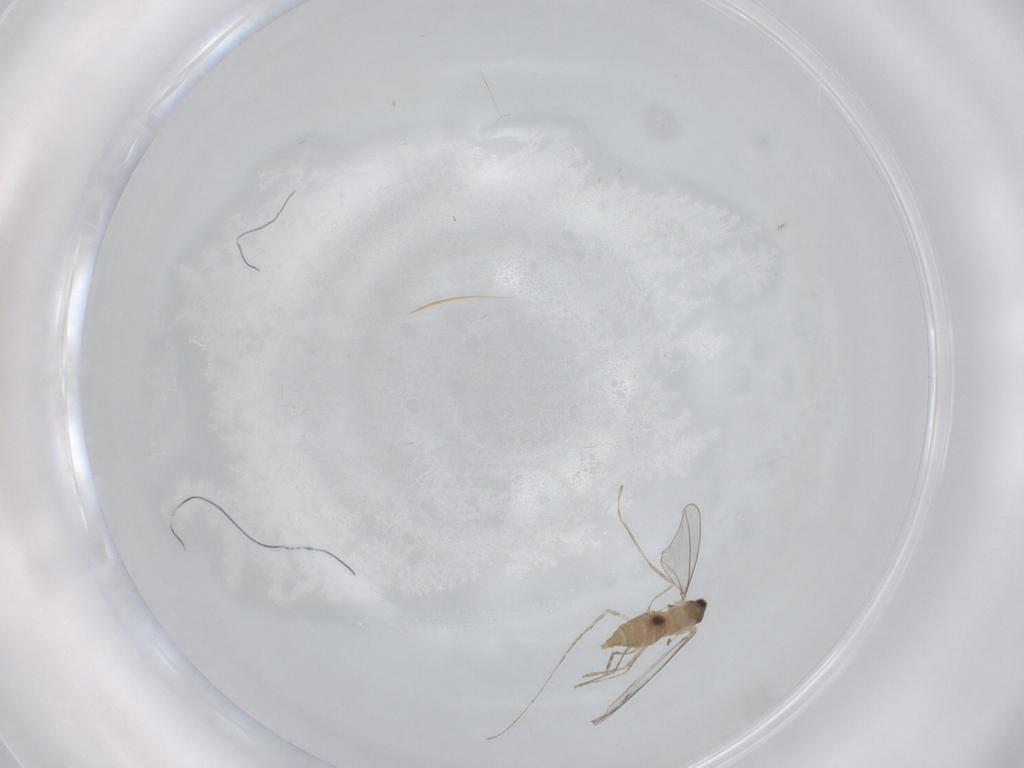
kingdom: Animalia
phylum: Arthropoda
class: Insecta
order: Diptera
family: Cecidomyiidae
